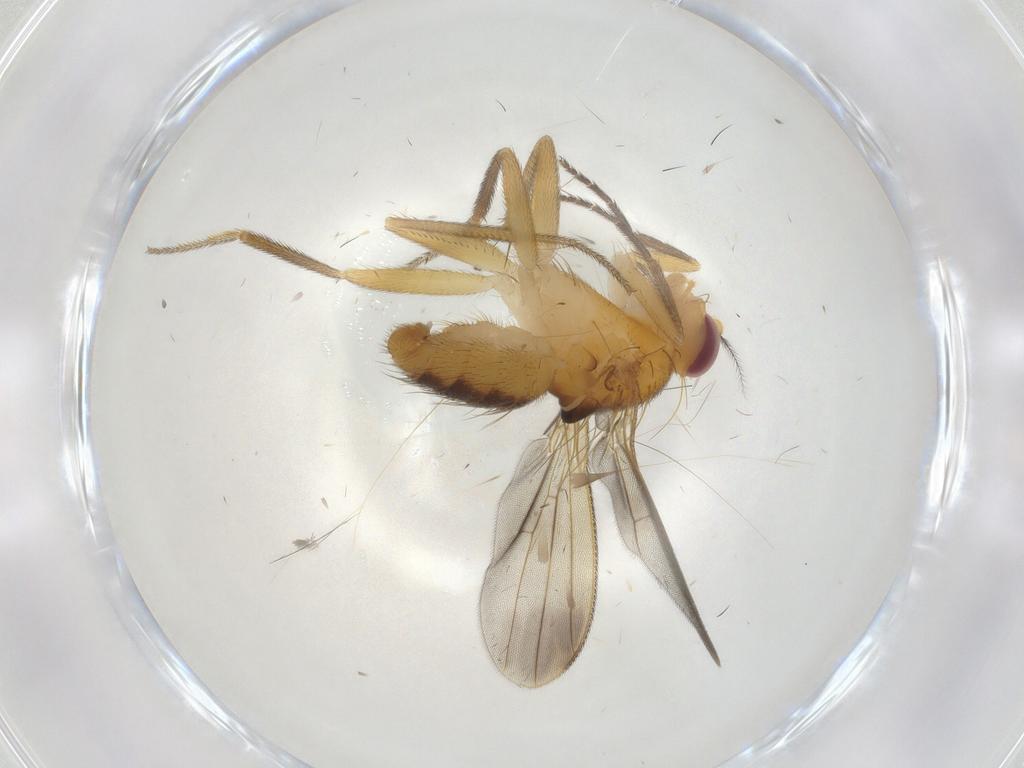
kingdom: Animalia
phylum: Arthropoda
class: Insecta
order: Diptera
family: Clusiidae
